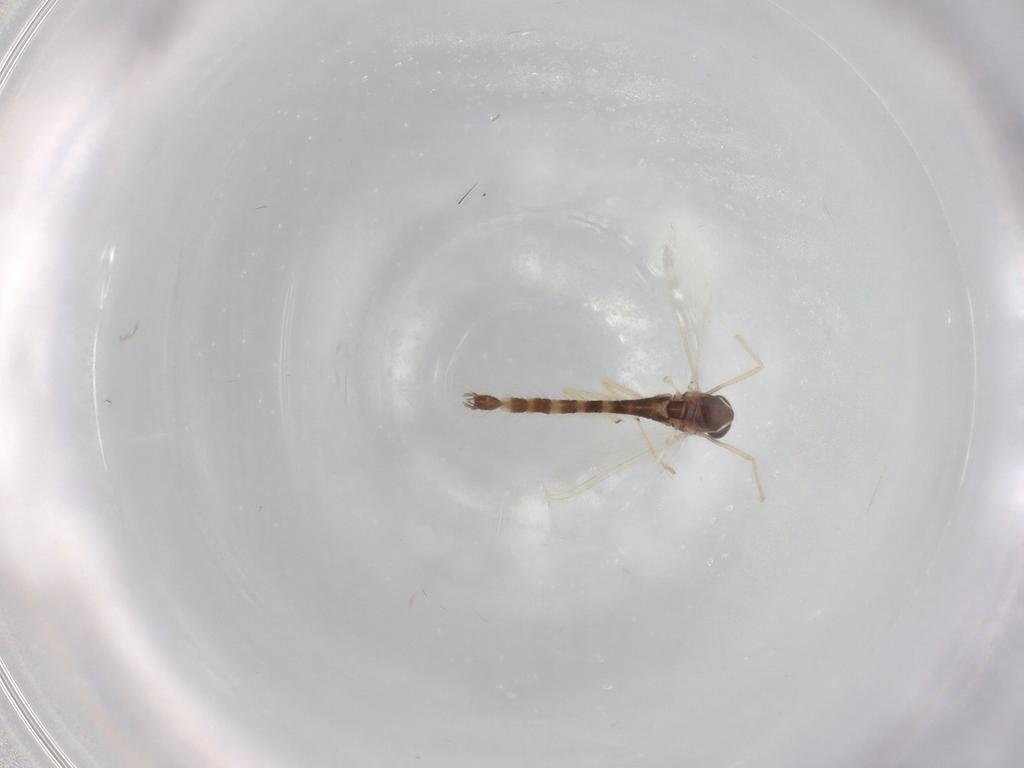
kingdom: Animalia
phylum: Arthropoda
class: Insecta
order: Diptera
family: Chironomidae
